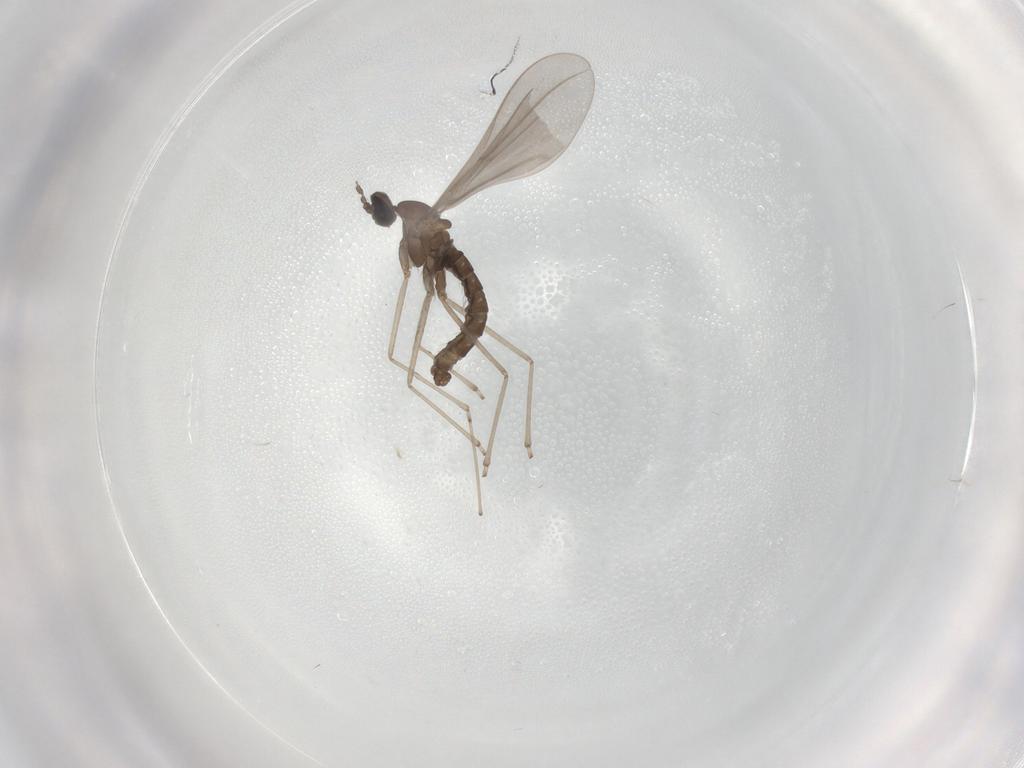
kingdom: Animalia
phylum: Arthropoda
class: Insecta
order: Diptera
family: Cecidomyiidae
